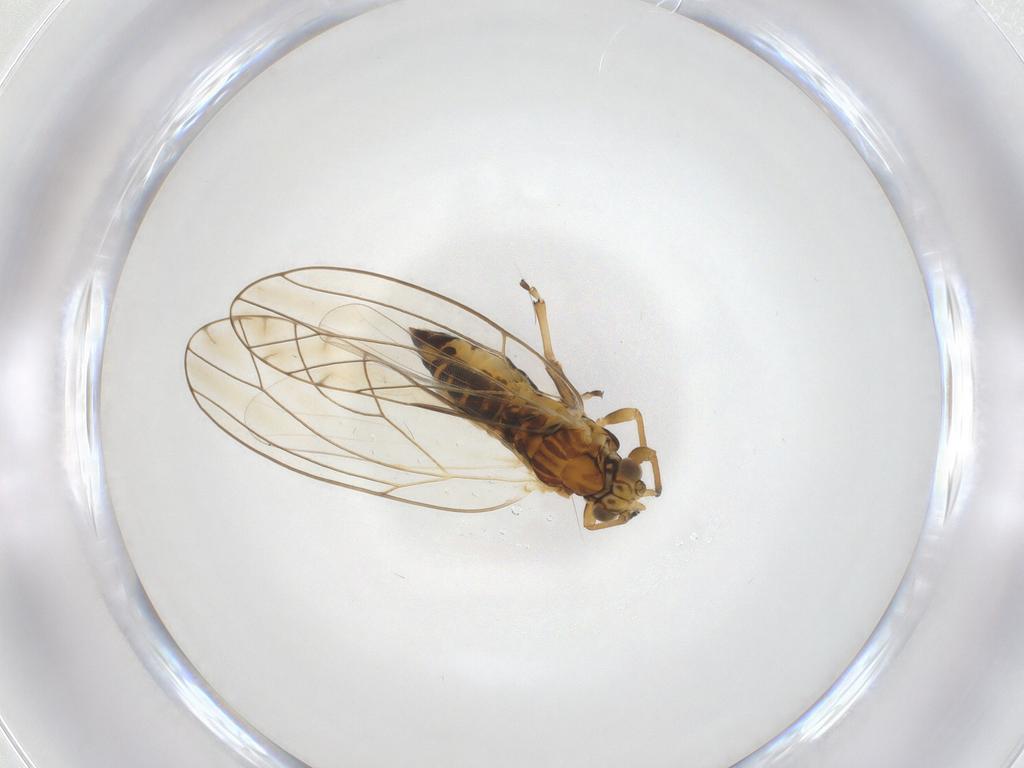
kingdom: Animalia
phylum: Arthropoda
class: Insecta
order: Hemiptera
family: Triozidae
